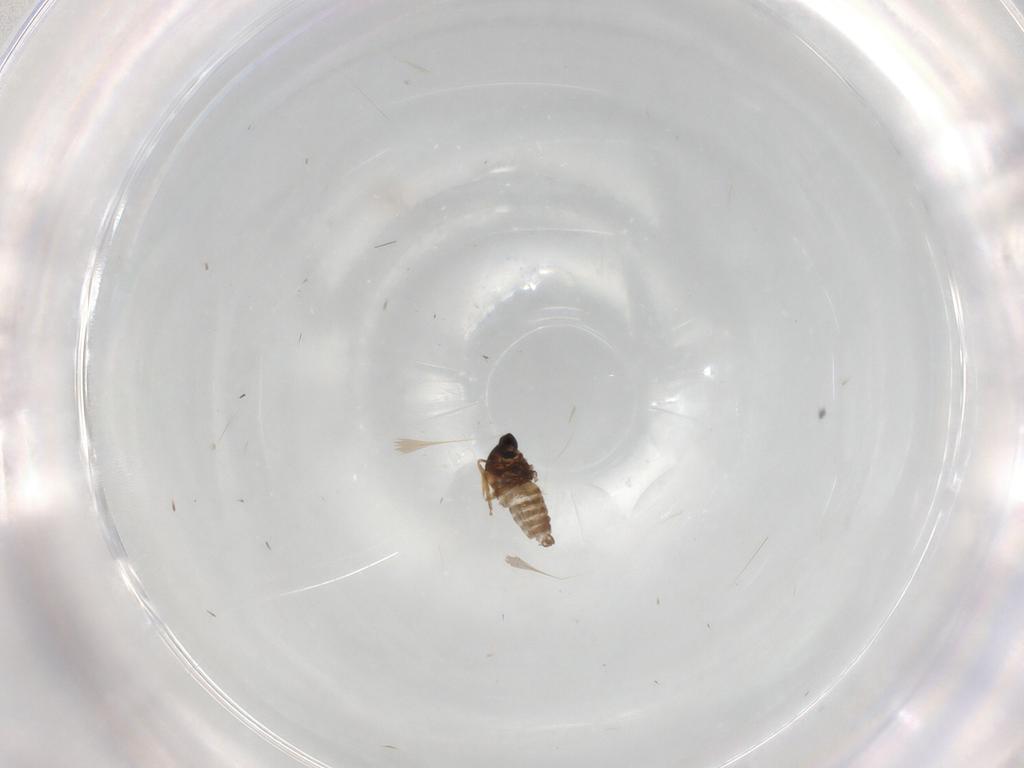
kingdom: Animalia
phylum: Arthropoda
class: Insecta
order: Diptera
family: Cecidomyiidae
